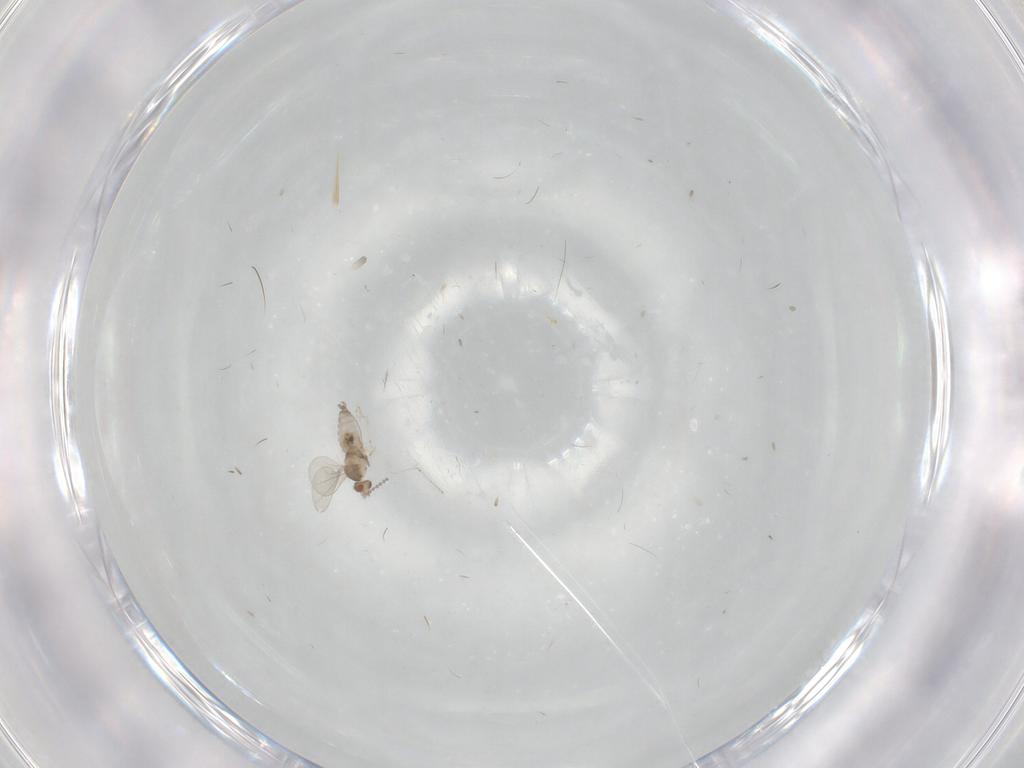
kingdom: Animalia
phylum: Arthropoda
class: Insecta
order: Diptera
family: Cecidomyiidae
